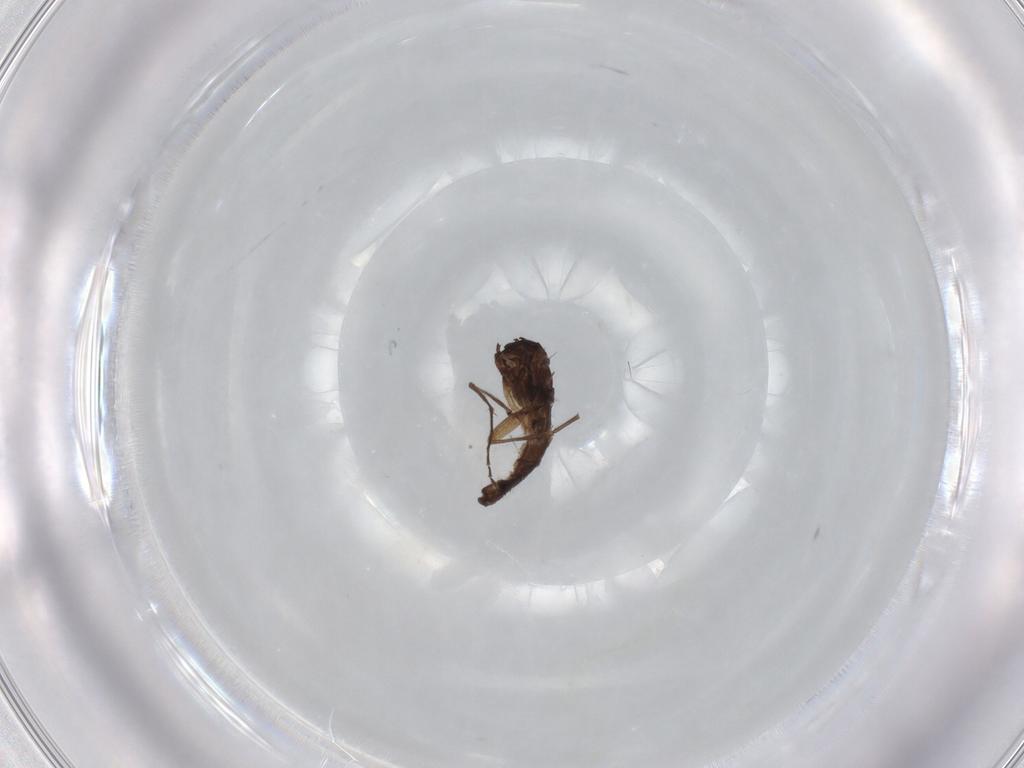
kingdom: Animalia
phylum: Arthropoda
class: Insecta
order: Diptera
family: Sciaridae
